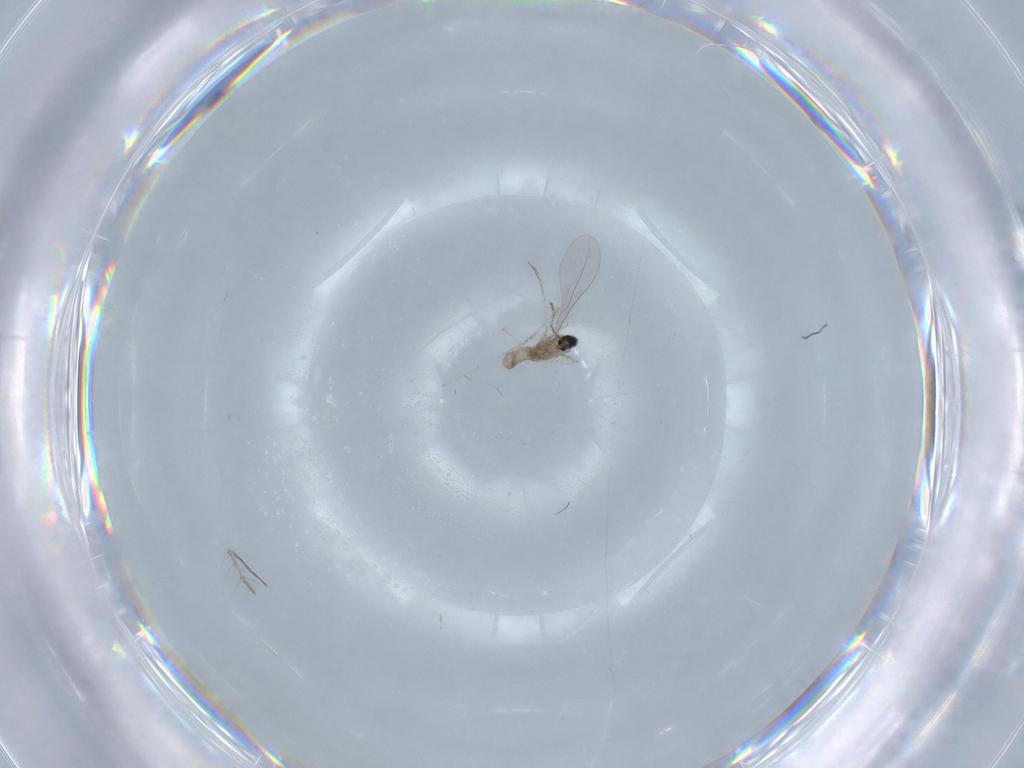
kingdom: Animalia
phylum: Arthropoda
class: Insecta
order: Diptera
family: Cecidomyiidae
